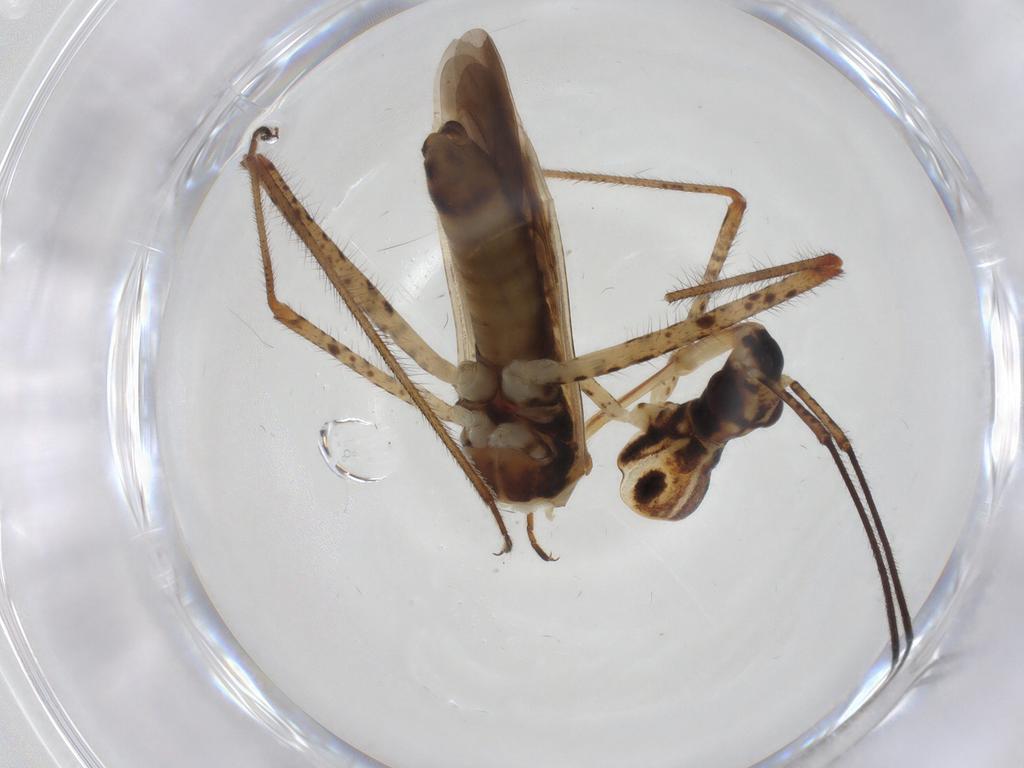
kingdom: Animalia
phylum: Arthropoda
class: Insecta
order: Hemiptera
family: Miridae
